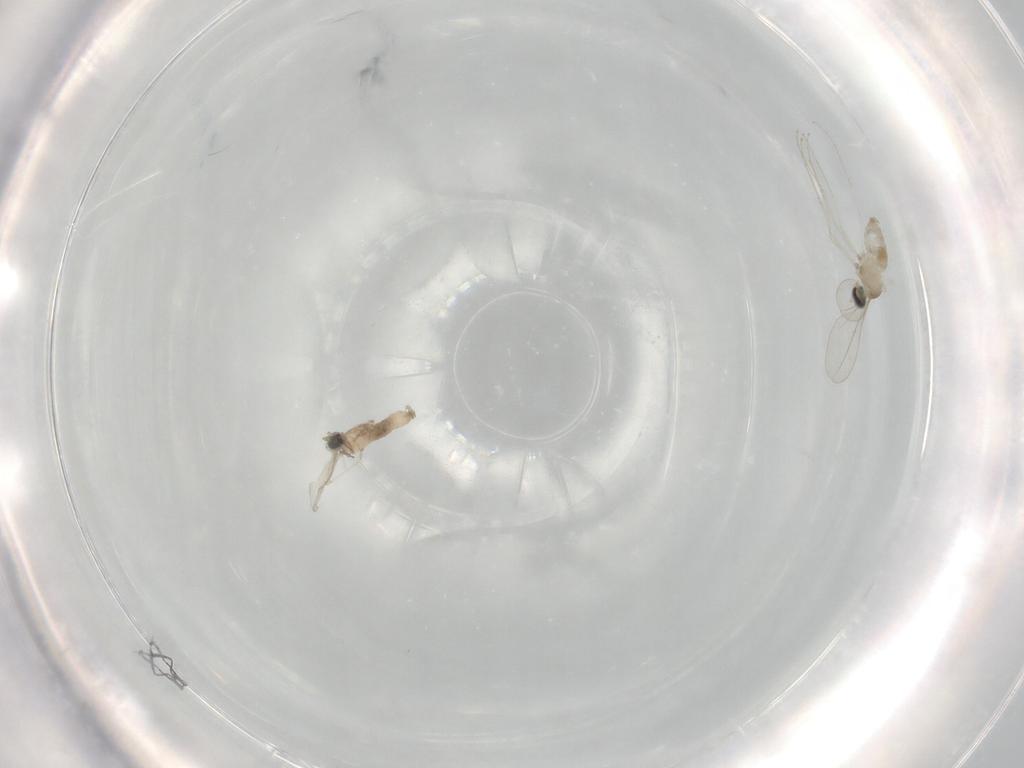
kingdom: Animalia
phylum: Arthropoda
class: Insecta
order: Diptera
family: Cecidomyiidae
